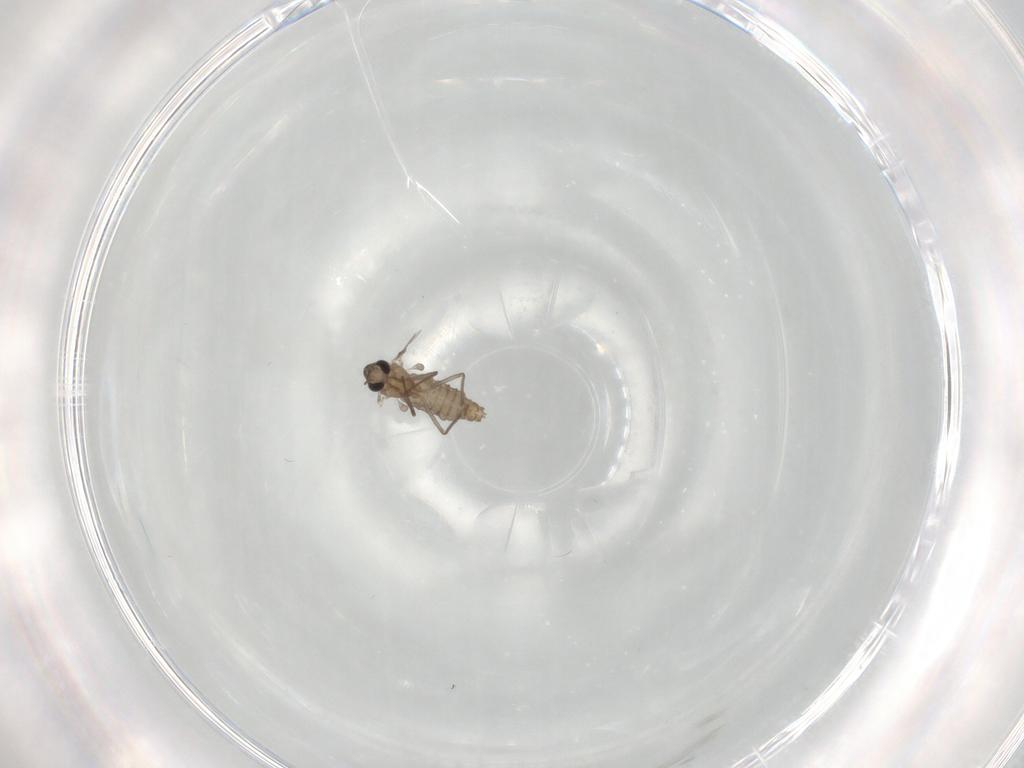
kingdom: Animalia
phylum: Arthropoda
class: Insecta
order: Diptera
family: Chironomidae
